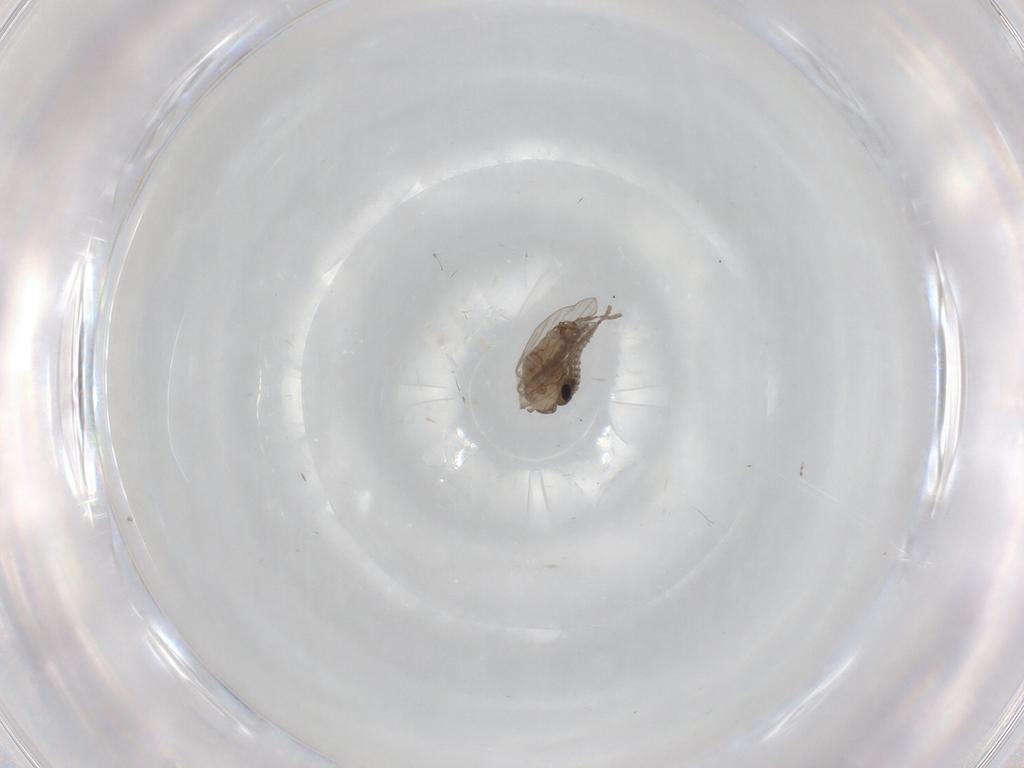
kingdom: Animalia
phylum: Arthropoda
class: Insecta
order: Diptera
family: Psychodidae
